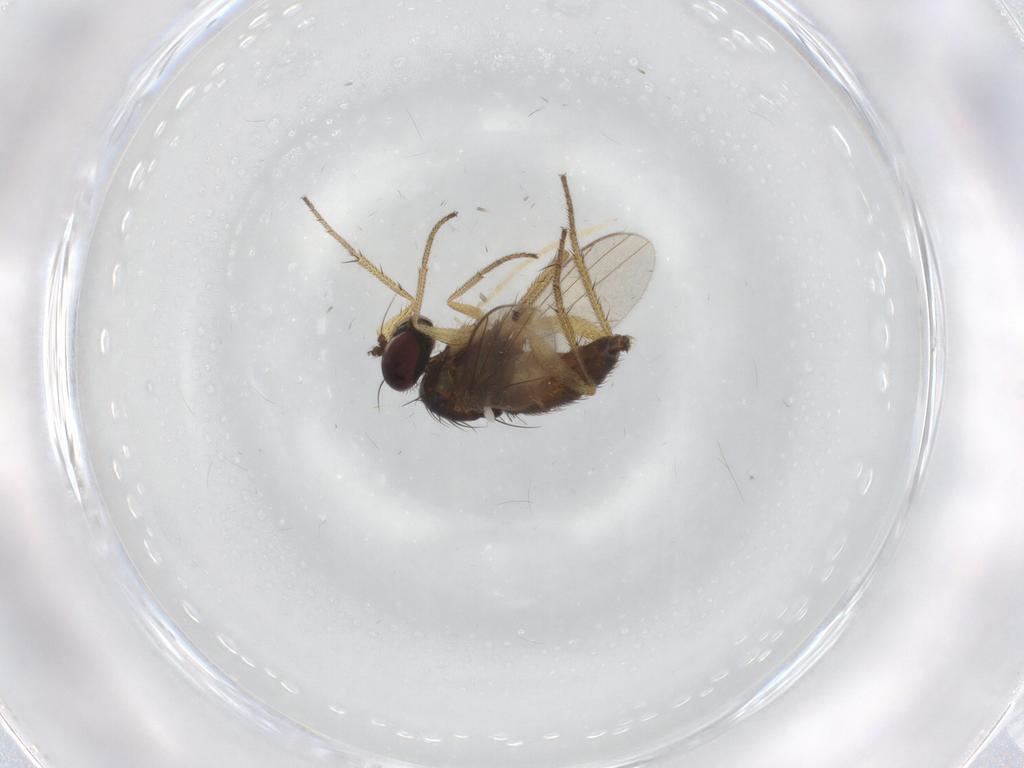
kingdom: Animalia
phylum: Arthropoda
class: Insecta
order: Diptera
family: Chironomidae
